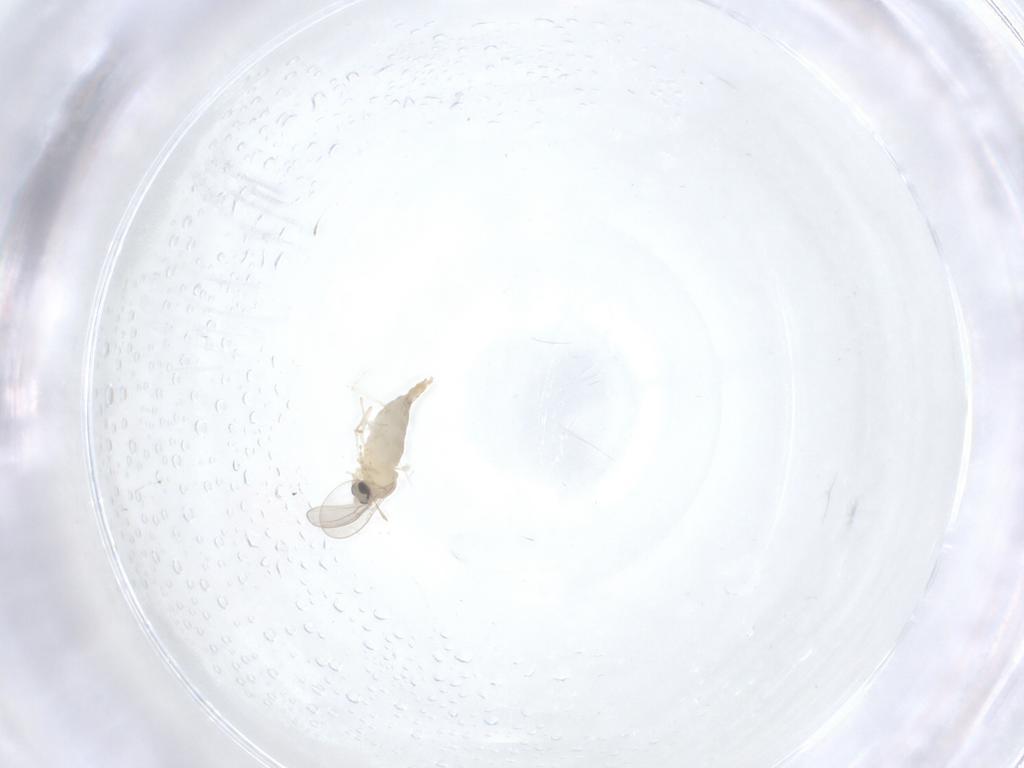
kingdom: Animalia
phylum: Arthropoda
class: Insecta
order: Diptera
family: Cecidomyiidae
